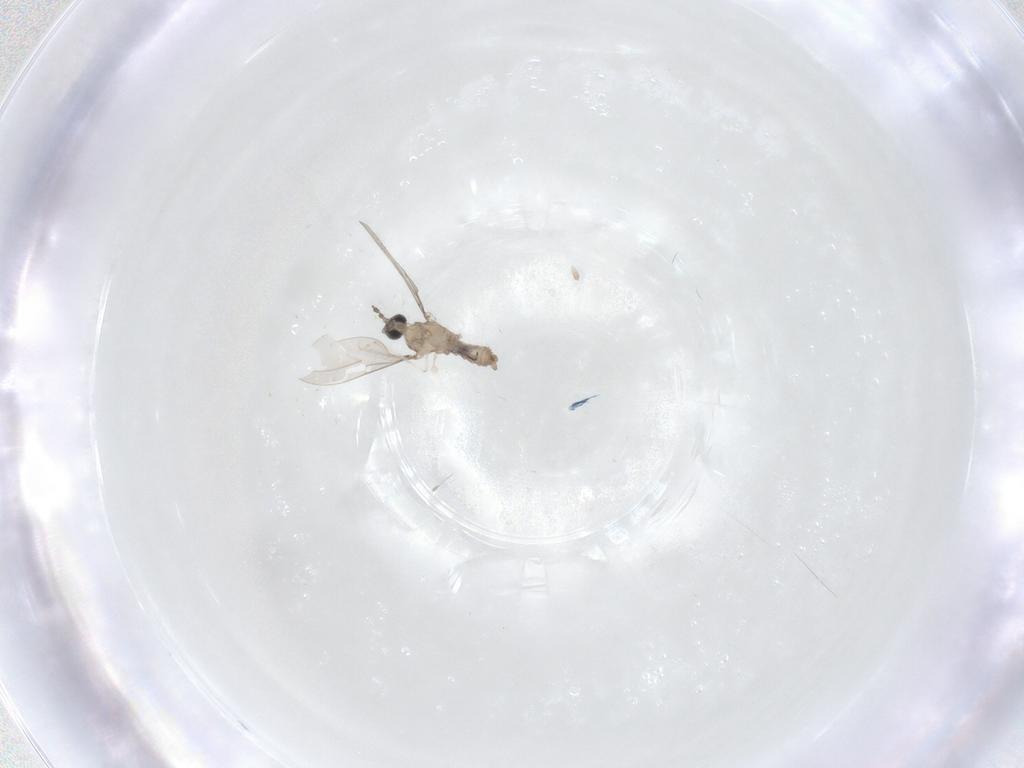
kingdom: Animalia
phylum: Arthropoda
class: Insecta
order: Diptera
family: Cecidomyiidae
